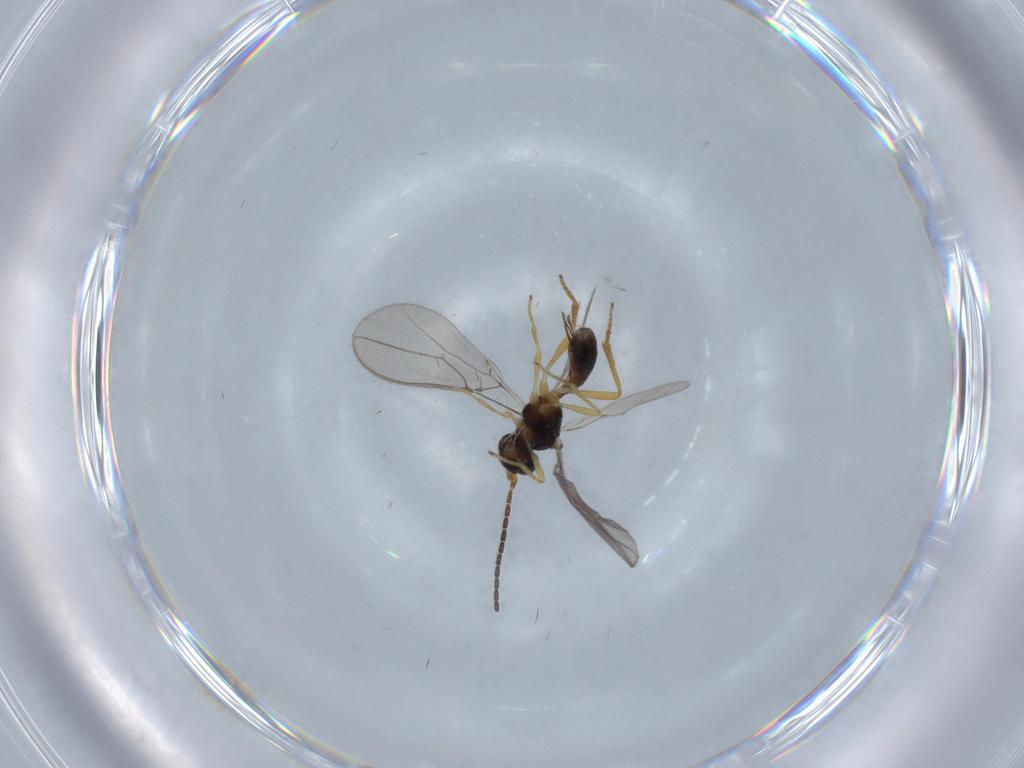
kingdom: Animalia
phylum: Arthropoda
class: Insecta
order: Hymenoptera
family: Braconidae
